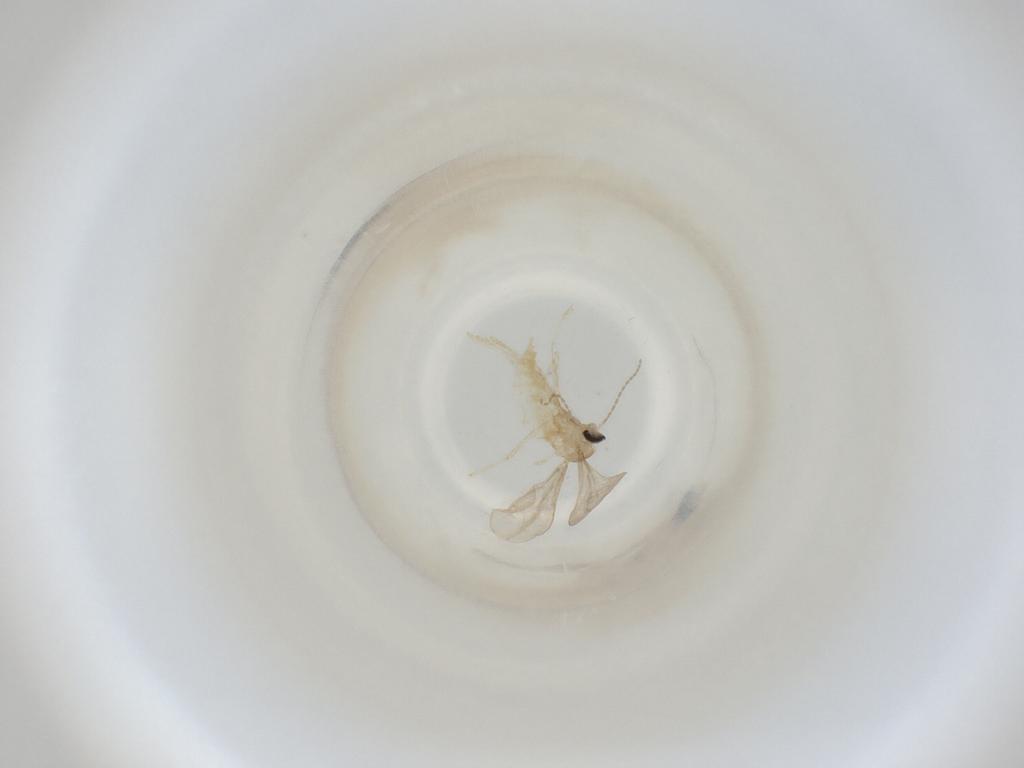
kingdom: Animalia
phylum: Arthropoda
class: Insecta
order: Diptera
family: Cecidomyiidae
